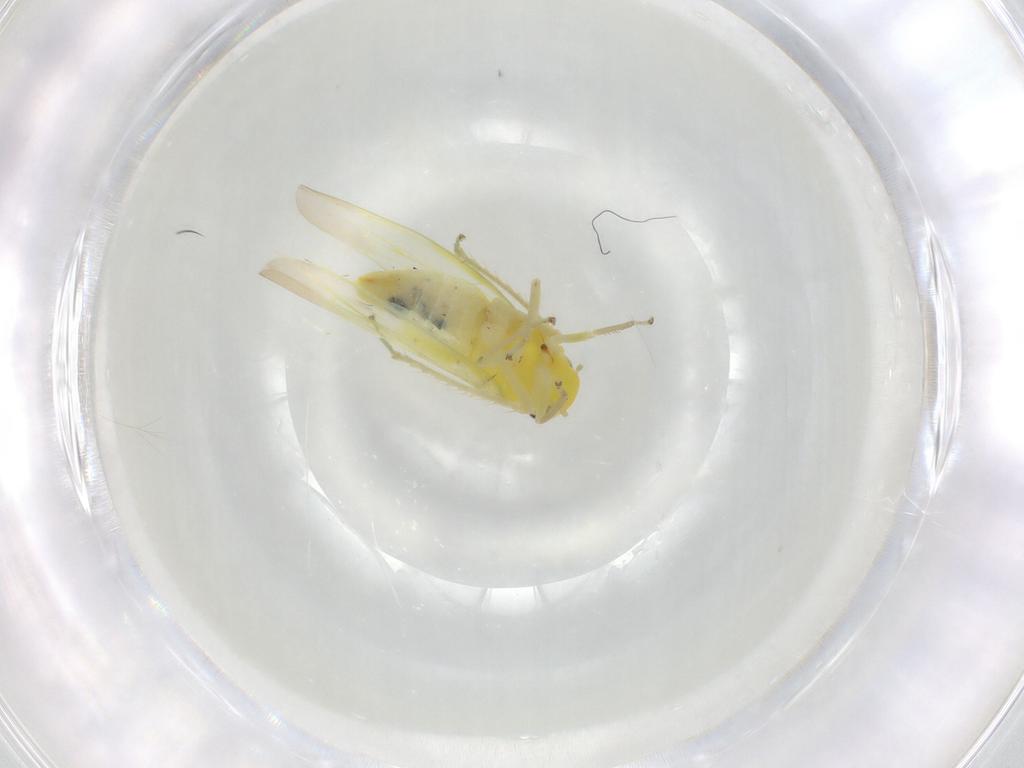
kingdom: Animalia
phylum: Arthropoda
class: Insecta
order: Hemiptera
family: Cicadellidae
